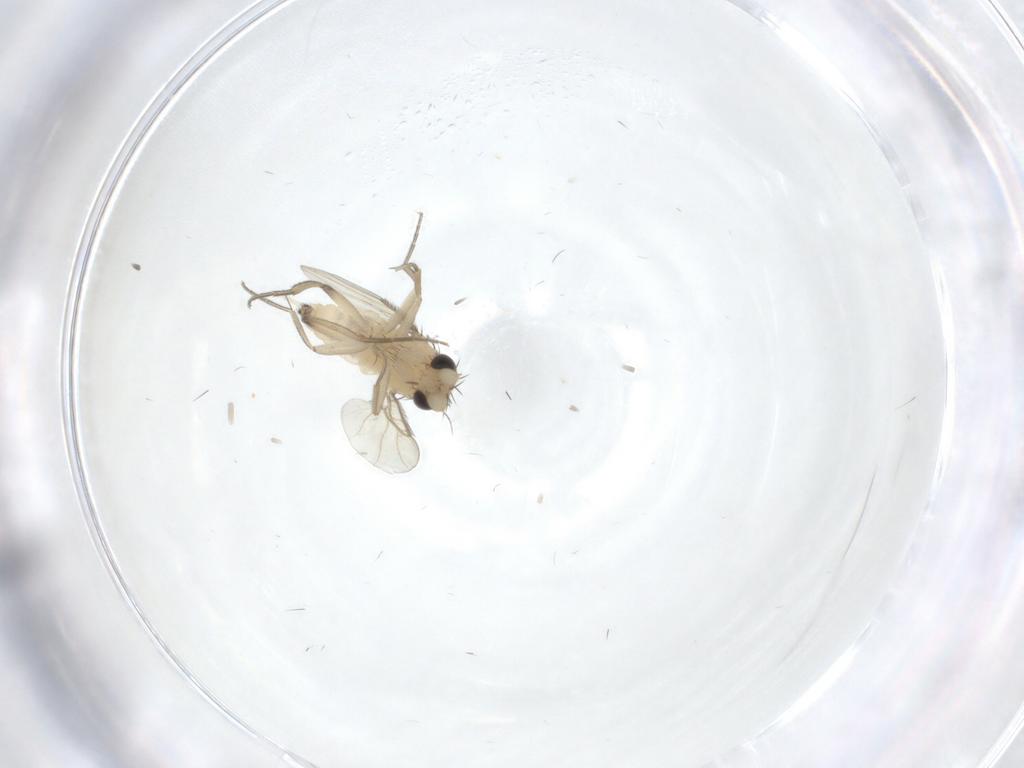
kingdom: Animalia
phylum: Arthropoda
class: Insecta
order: Diptera
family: Phoridae
